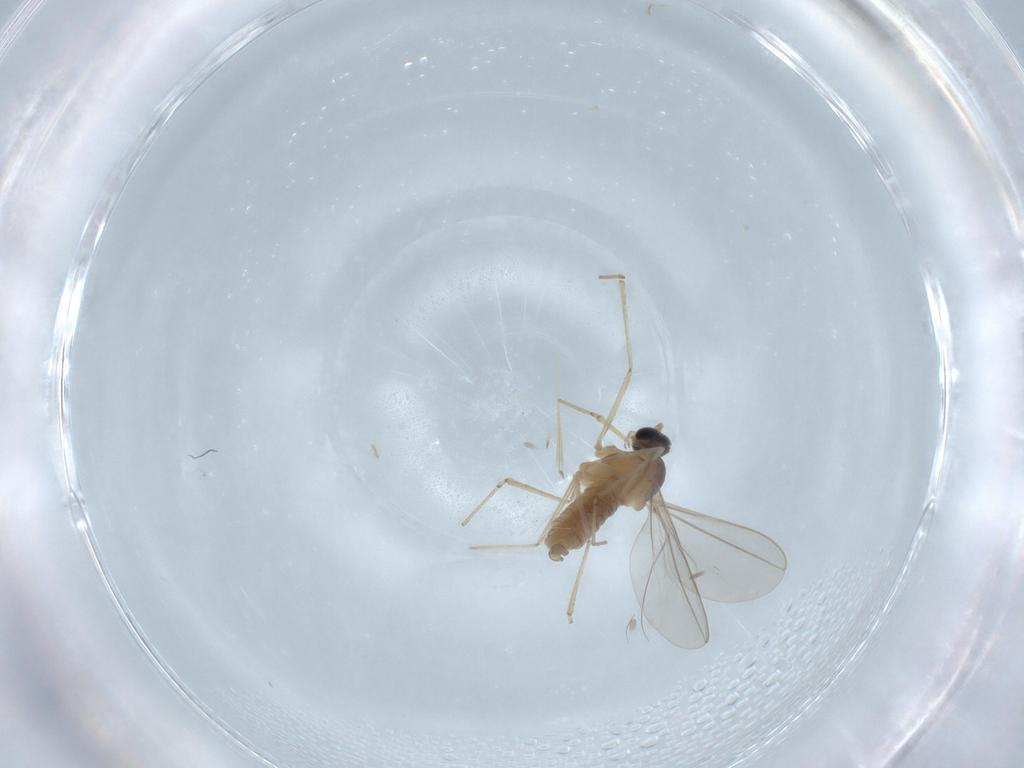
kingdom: Animalia
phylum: Arthropoda
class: Insecta
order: Diptera
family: Cecidomyiidae
